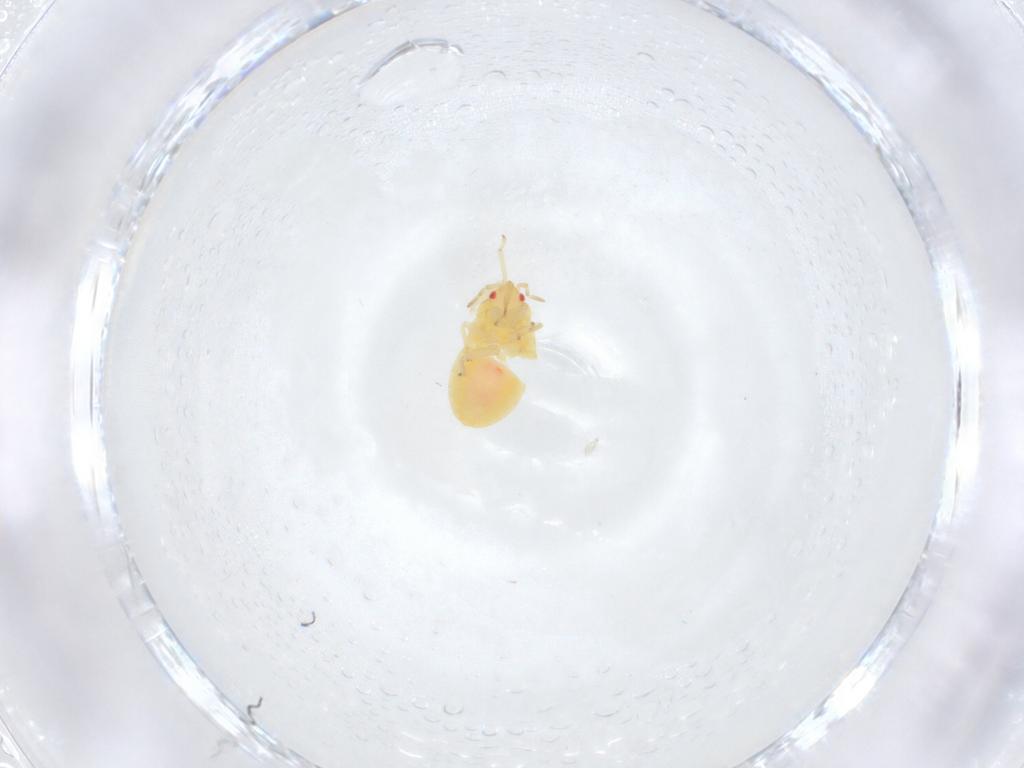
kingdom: Animalia
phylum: Arthropoda
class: Insecta
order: Hemiptera
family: Anthocoridae
